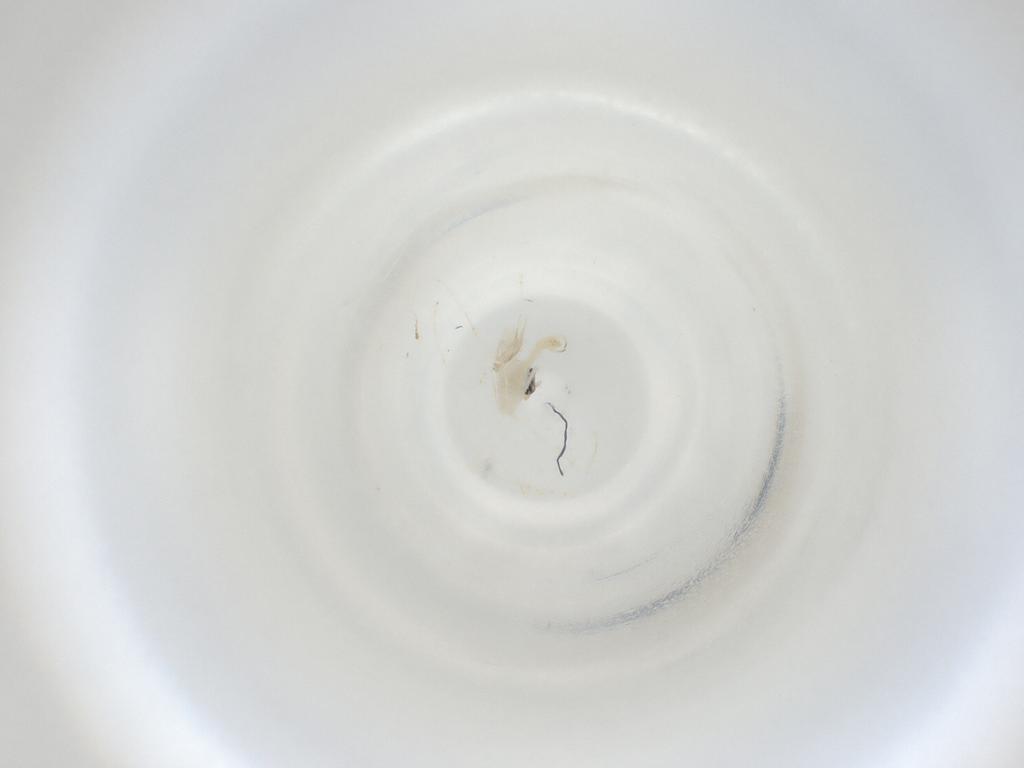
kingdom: Animalia
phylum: Arthropoda
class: Insecta
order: Diptera
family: Cecidomyiidae
